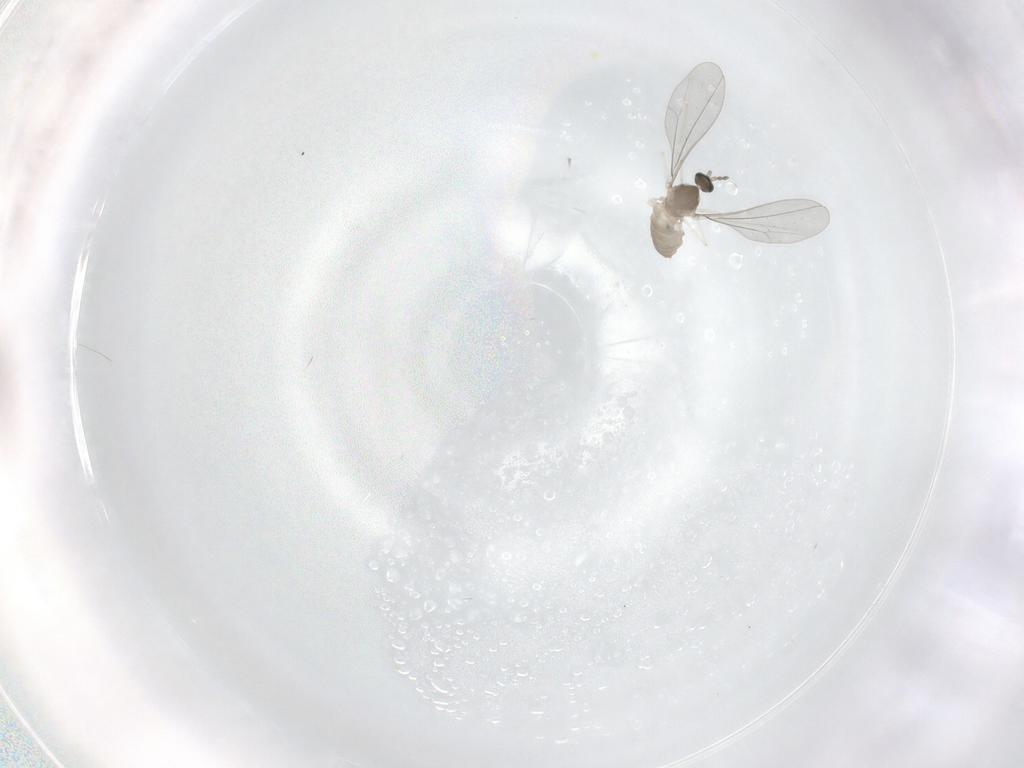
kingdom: Animalia
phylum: Arthropoda
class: Insecta
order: Diptera
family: Cecidomyiidae
